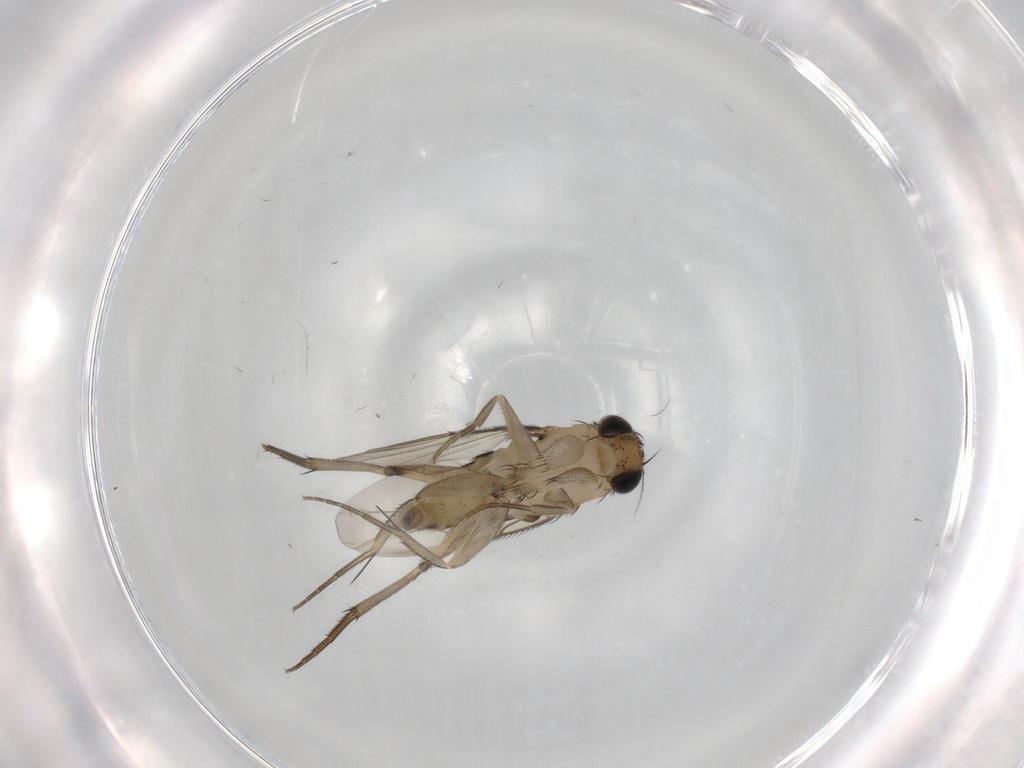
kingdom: Animalia
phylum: Arthropoda
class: Insecta
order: Diptera
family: Phoridae
